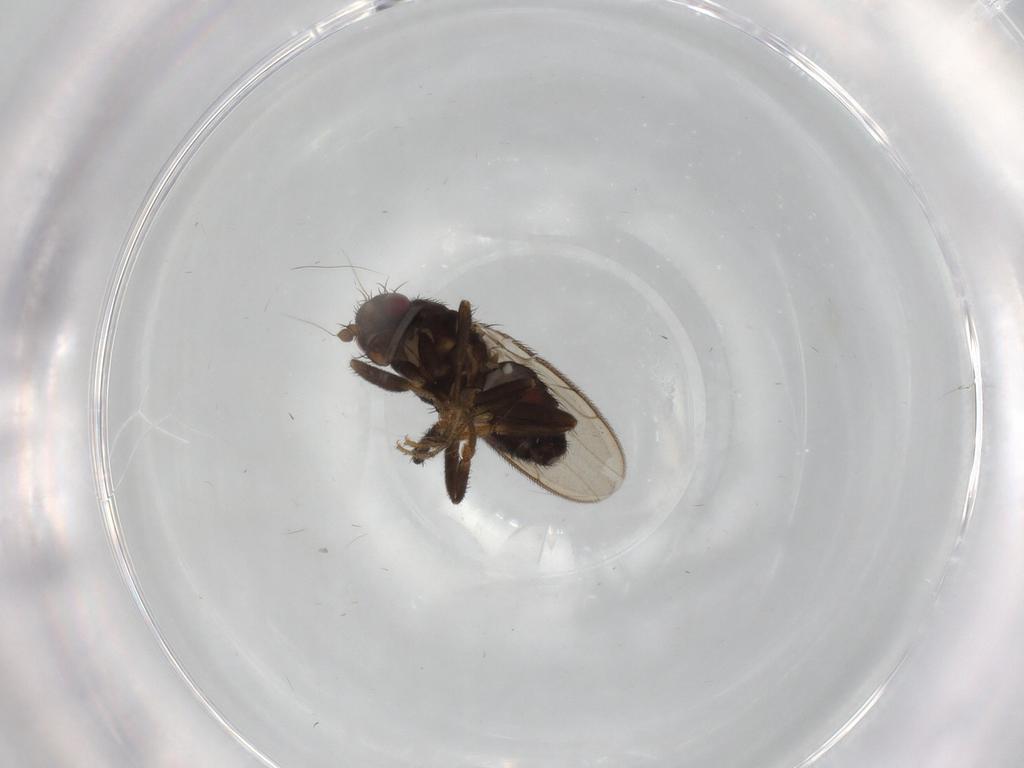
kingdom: Animalia
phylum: Arthropoda
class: Insecta
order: Diptera
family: Sphaeroceridae
